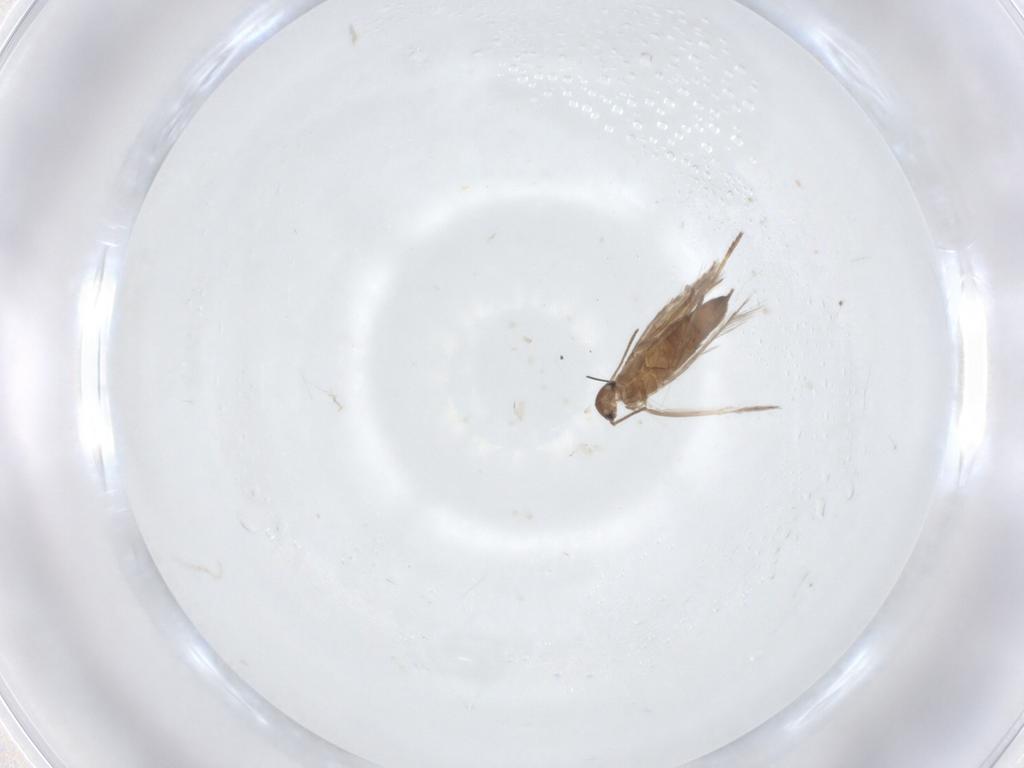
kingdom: Animalia
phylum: Arthropoda
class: Insecta
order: Lepidoptera
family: Heliozelidae
